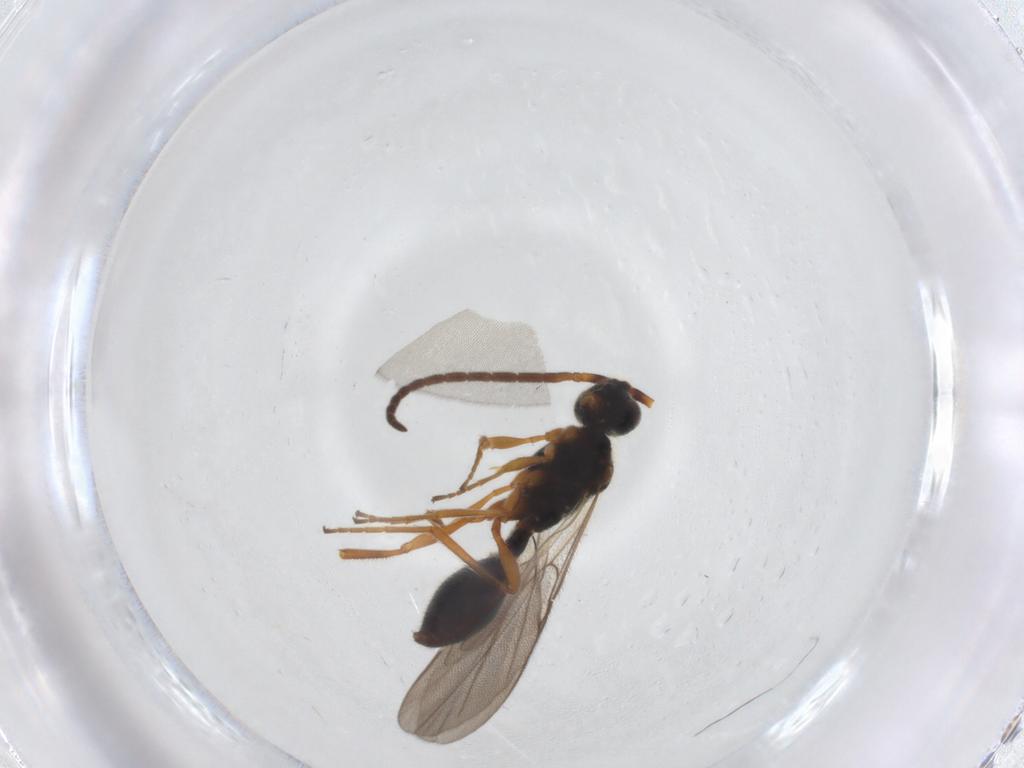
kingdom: Animalia
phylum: Arthropoda
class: Insecta
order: Hymenoptera
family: Diapriidae
